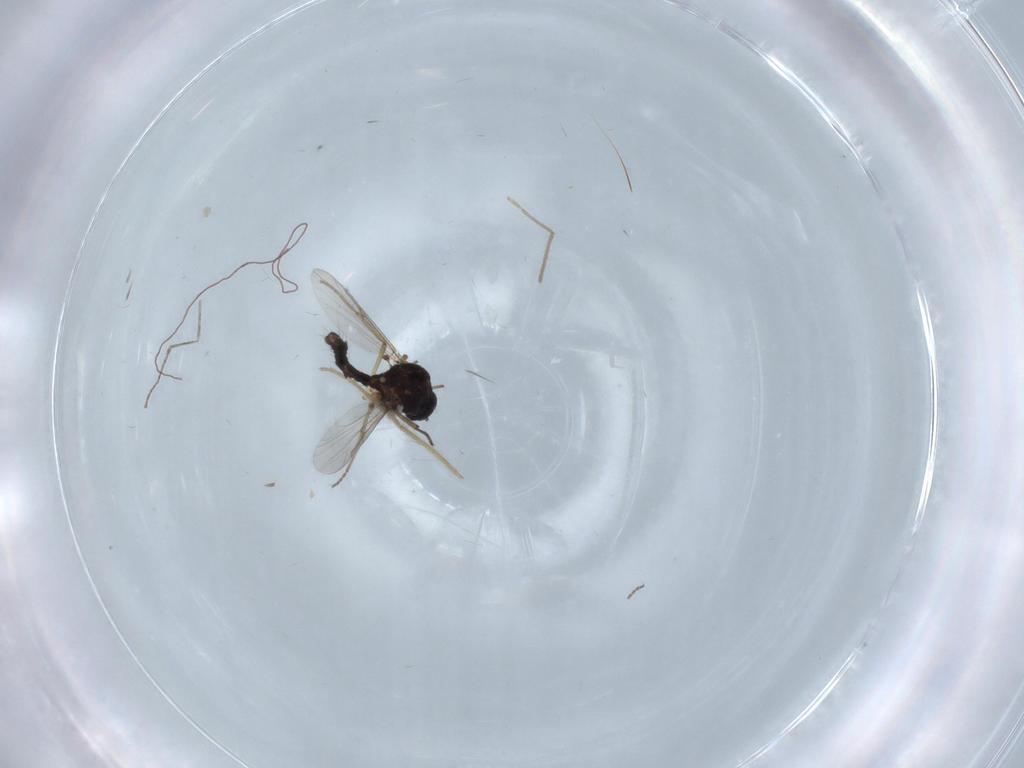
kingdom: Animalia
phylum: Arthropoda
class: Insecta
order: Diptera
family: Ceratopogonidae
